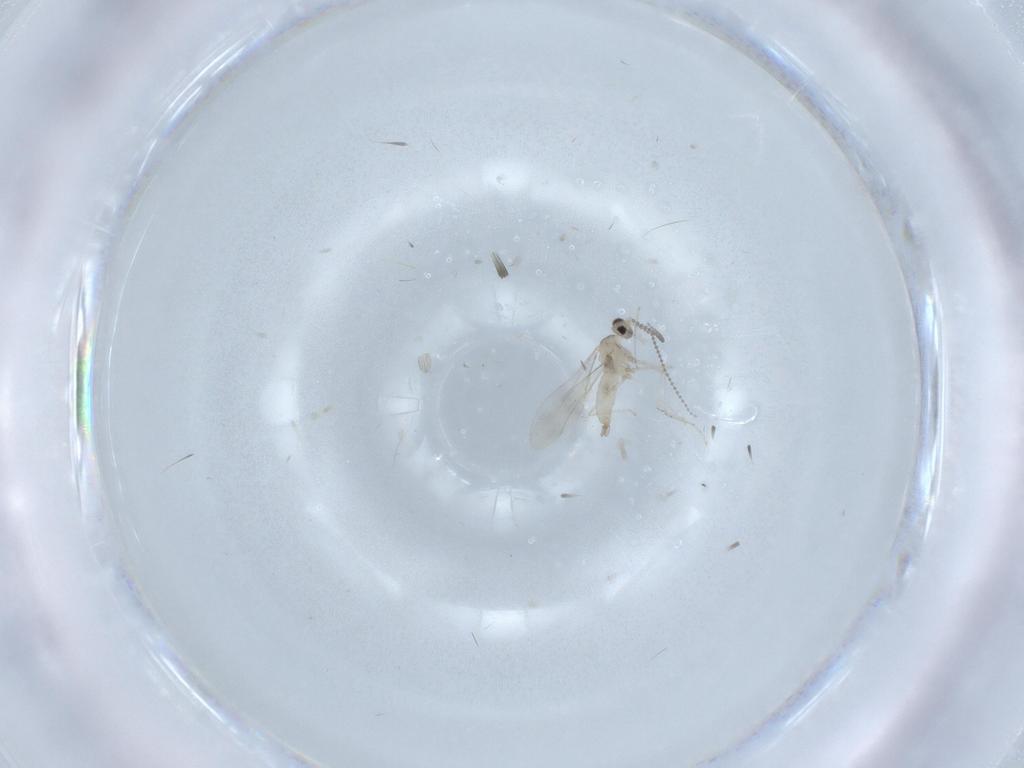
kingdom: Animalia
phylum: Arthropoda
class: Insecta
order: Diptera
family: Cecidomyiidae
